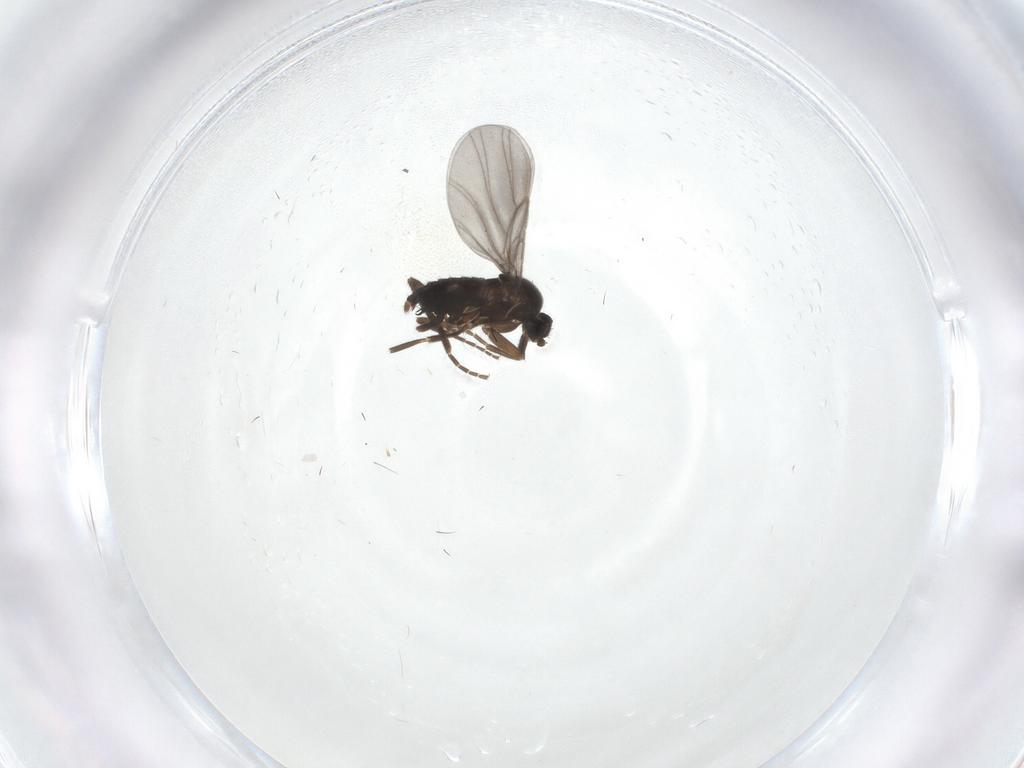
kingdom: Animalia
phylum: Arthropoda
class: Insecta
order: Diptera
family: Chironomidae
